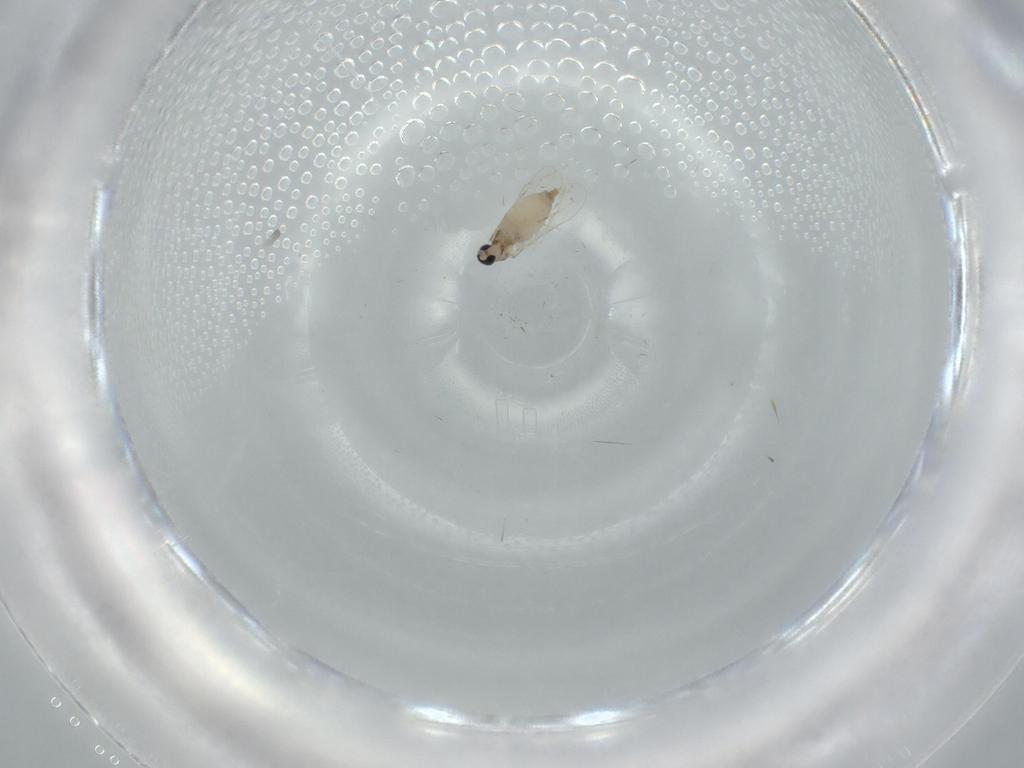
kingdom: Animalia
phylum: Arthropoda
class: Insecta
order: Diptera
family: Cecidomyiidae
